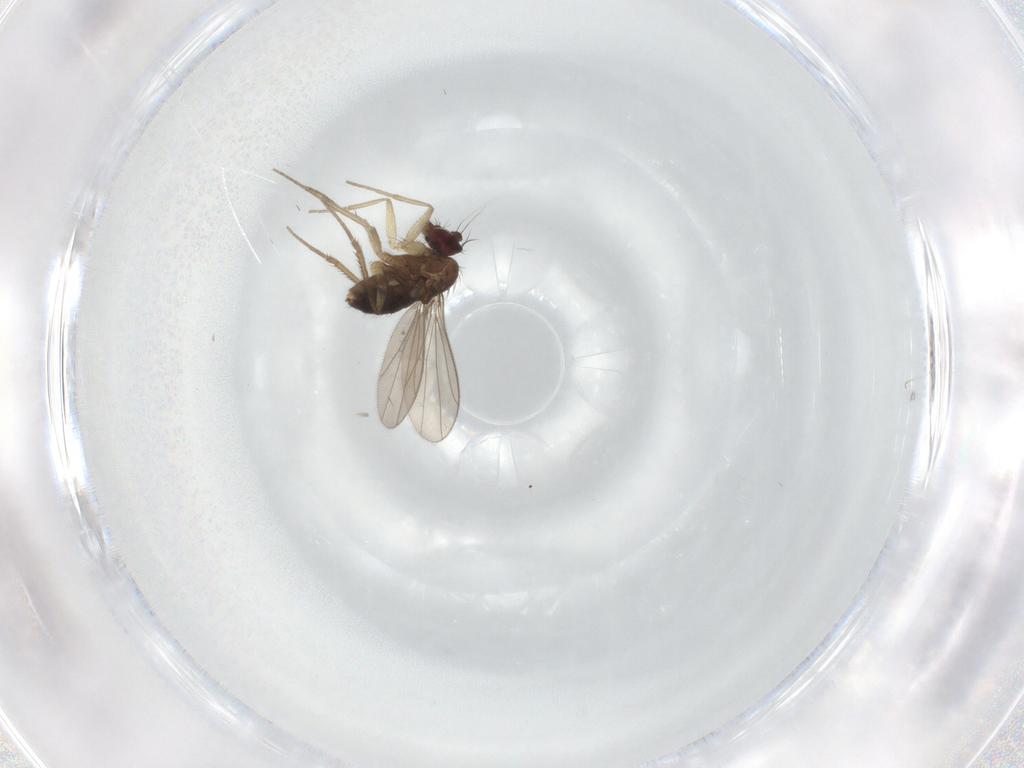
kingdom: Animalia
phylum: Arthropoda
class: Insecta
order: Diptera
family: Dolichopodidae
